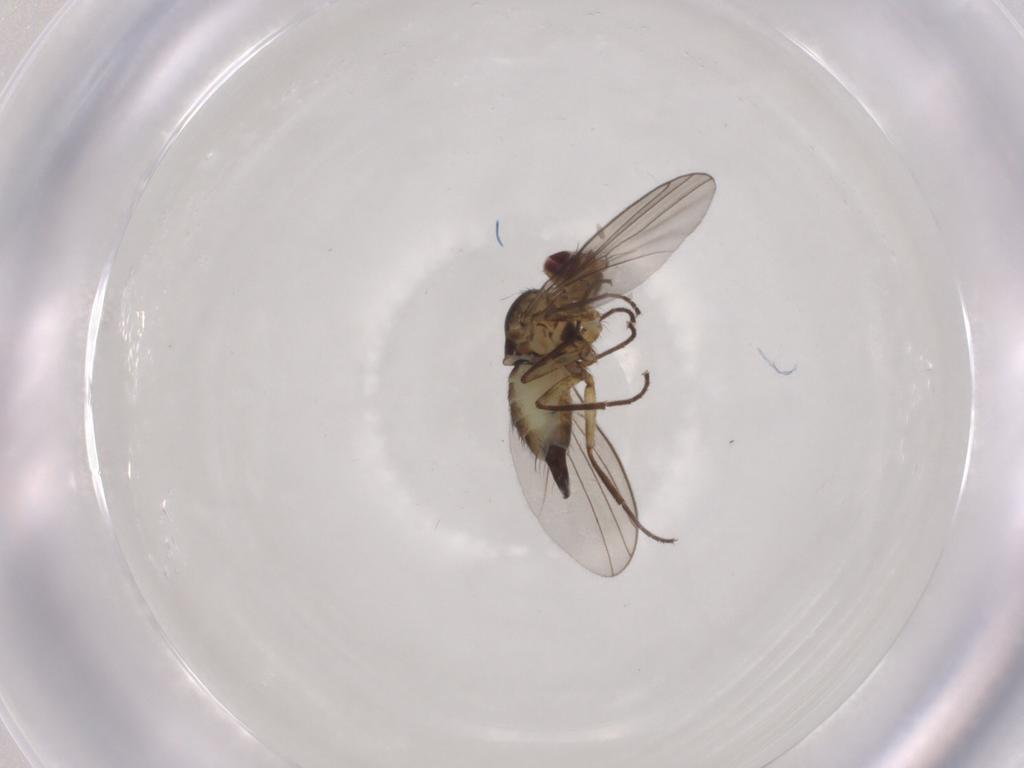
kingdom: Animalia
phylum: Arthropoda
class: Insecta
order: Diptera
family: Agromyzidae
